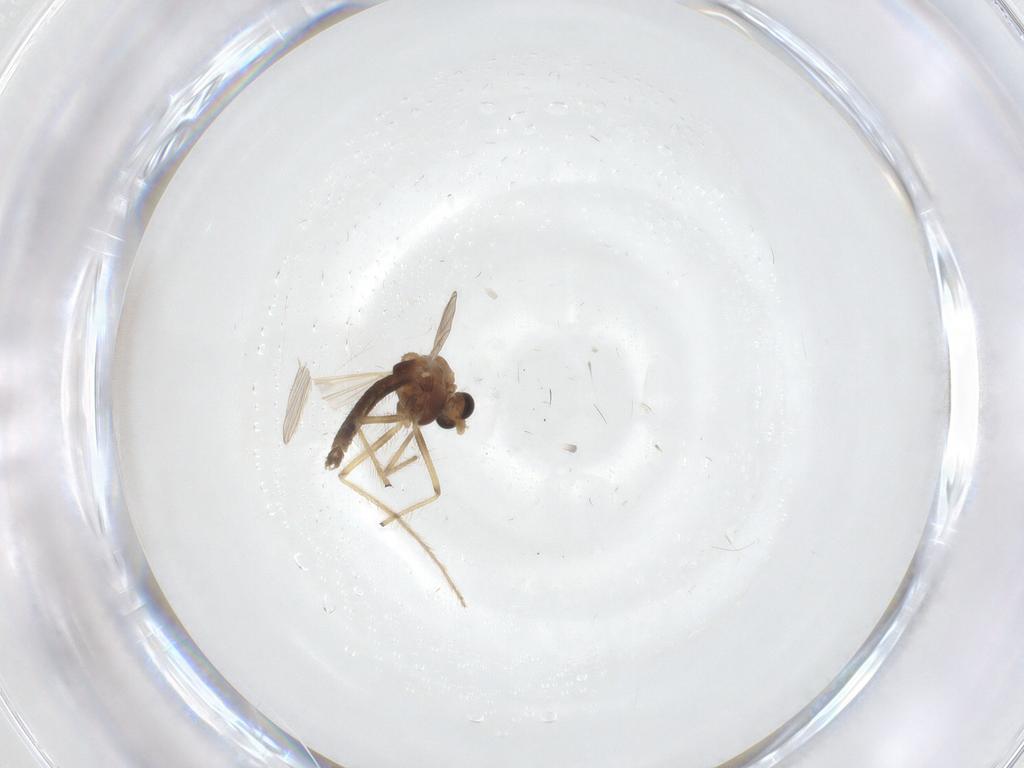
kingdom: Animalia
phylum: Arthropoda
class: Insecta
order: Diptera
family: Chironomidae
